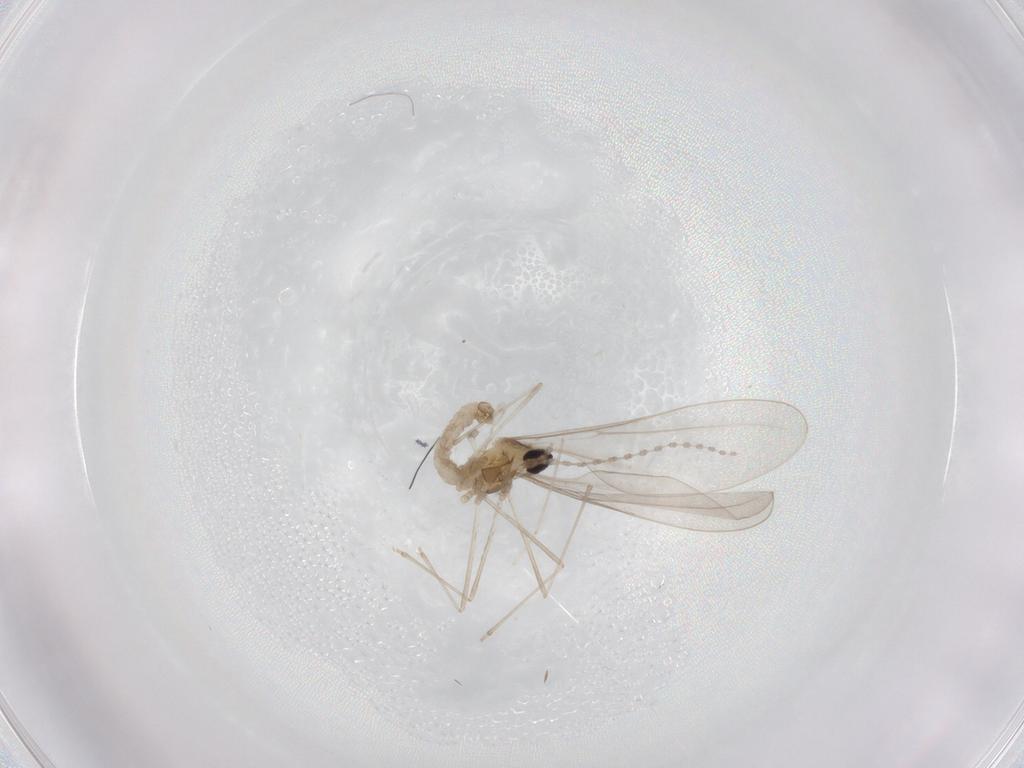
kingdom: Animalia
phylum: Arthropoda
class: Insecta
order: Diptera
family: Cecidomyiidae
